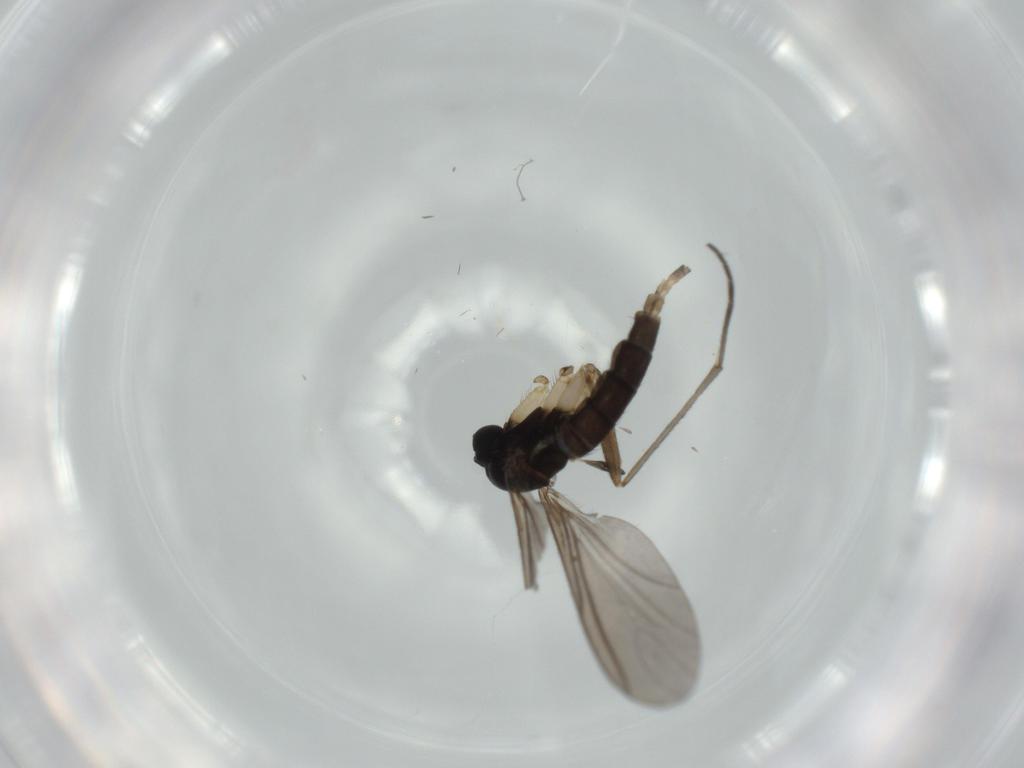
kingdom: Animalia
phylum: Arthropoda
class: Insecta
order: Diptera
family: Sciaridae
